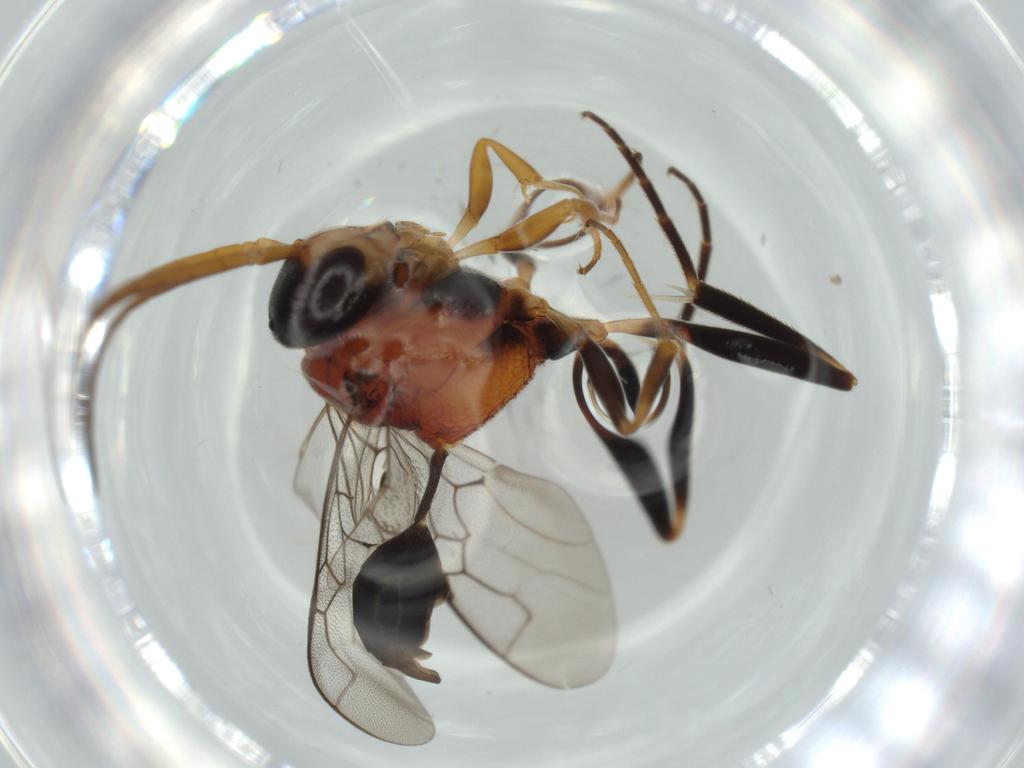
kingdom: Animalia
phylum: Arthropoda
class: Insecta
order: Hymenoptera
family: Evaniidae
